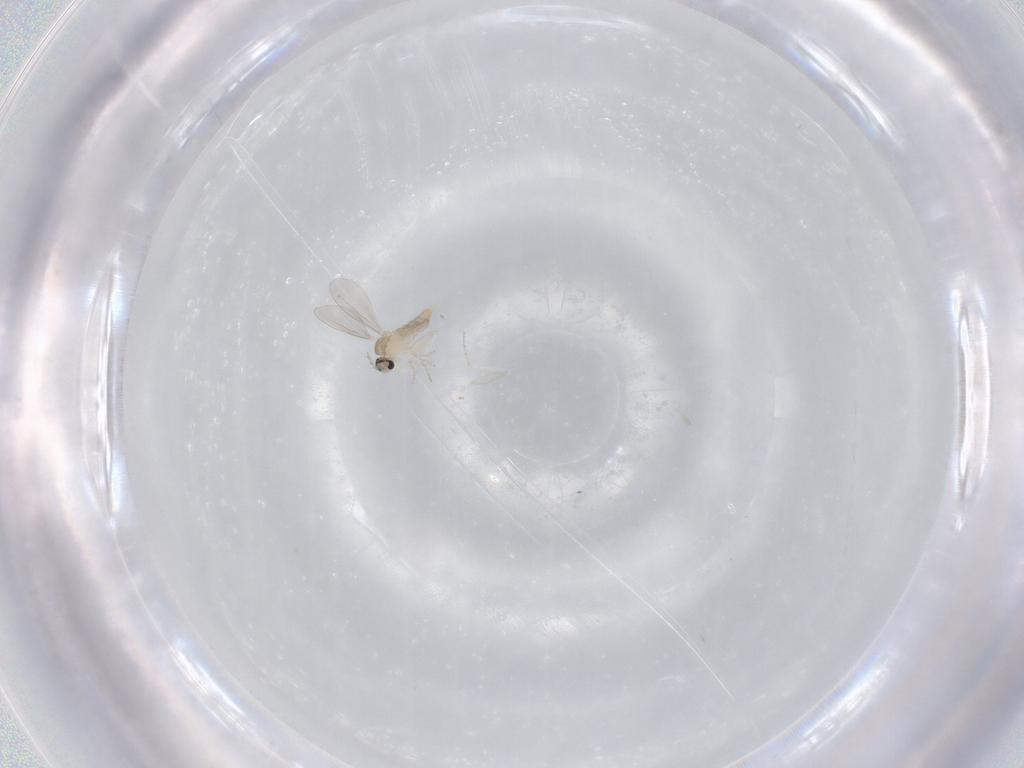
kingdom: Animalia
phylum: Arthropoda
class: Insecta
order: Diptera
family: Cecidomyiidae
